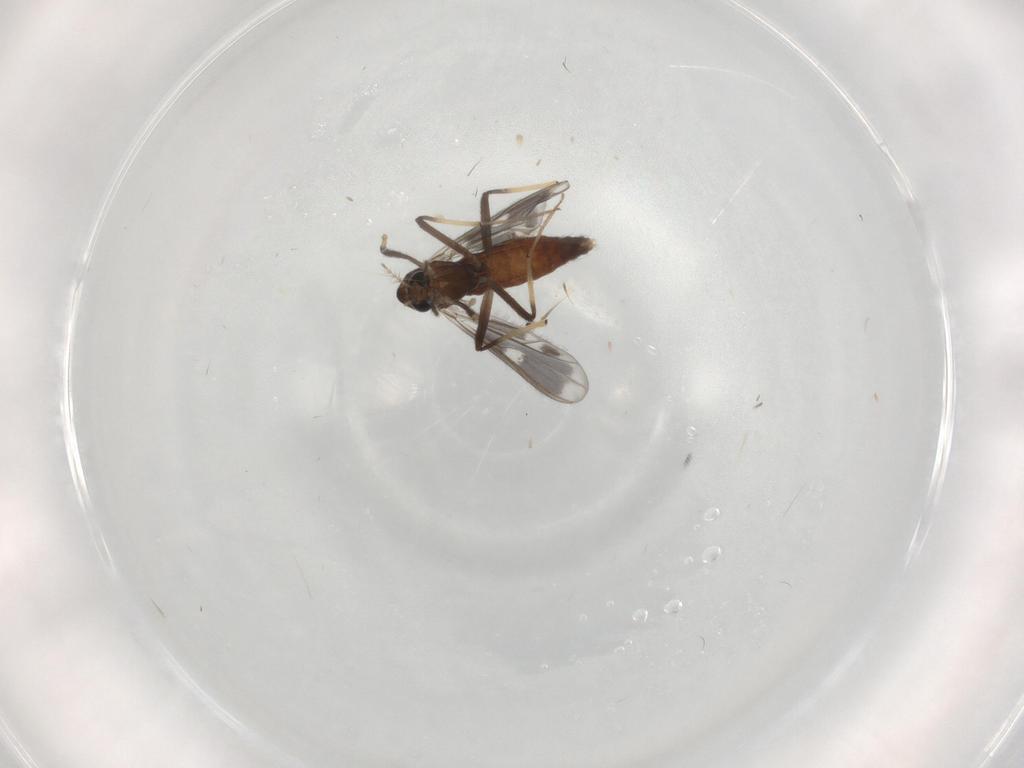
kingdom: Animalia
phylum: Arthropoda
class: Insecta
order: Diptera
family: Chironomidae
